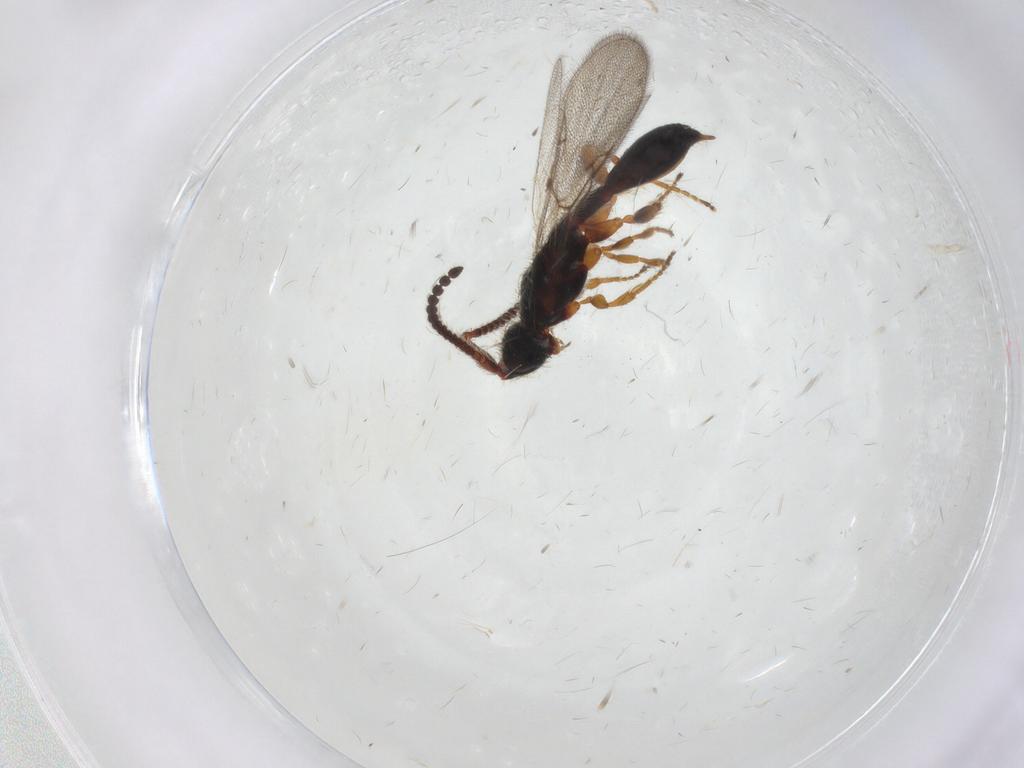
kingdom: Animalia
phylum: Arthropoda
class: Insecta
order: Hymenoptera
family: Diapriidae
